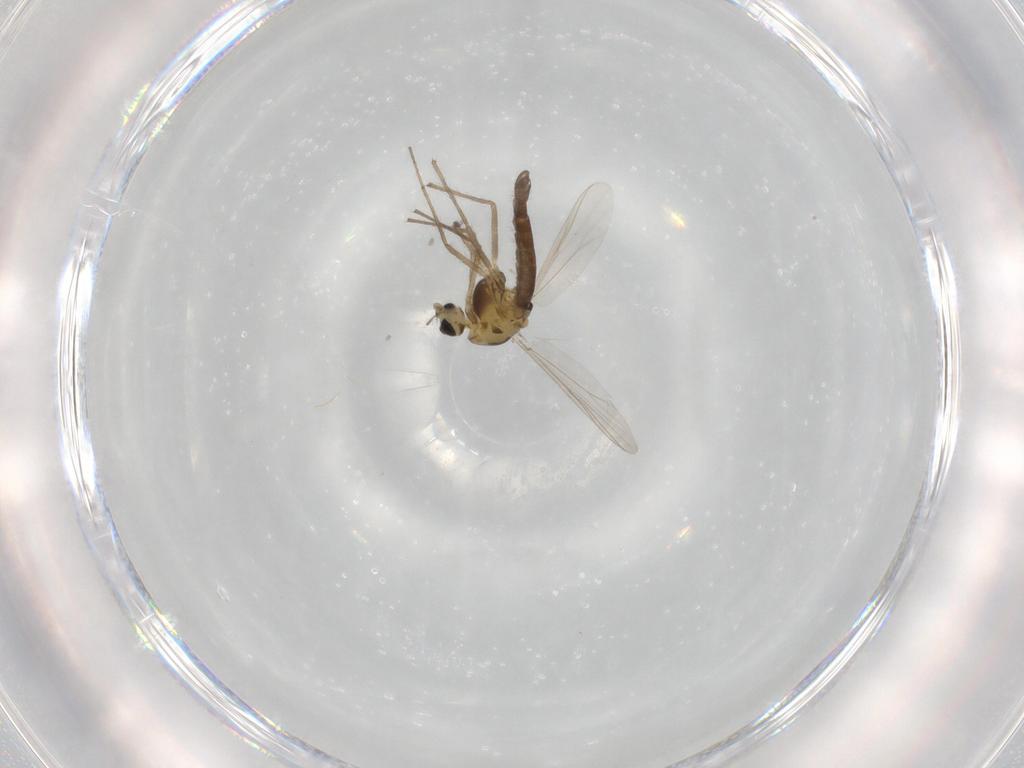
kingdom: Animalia
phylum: Arthropoda
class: Insecta
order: Diptera
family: Chironomidae
